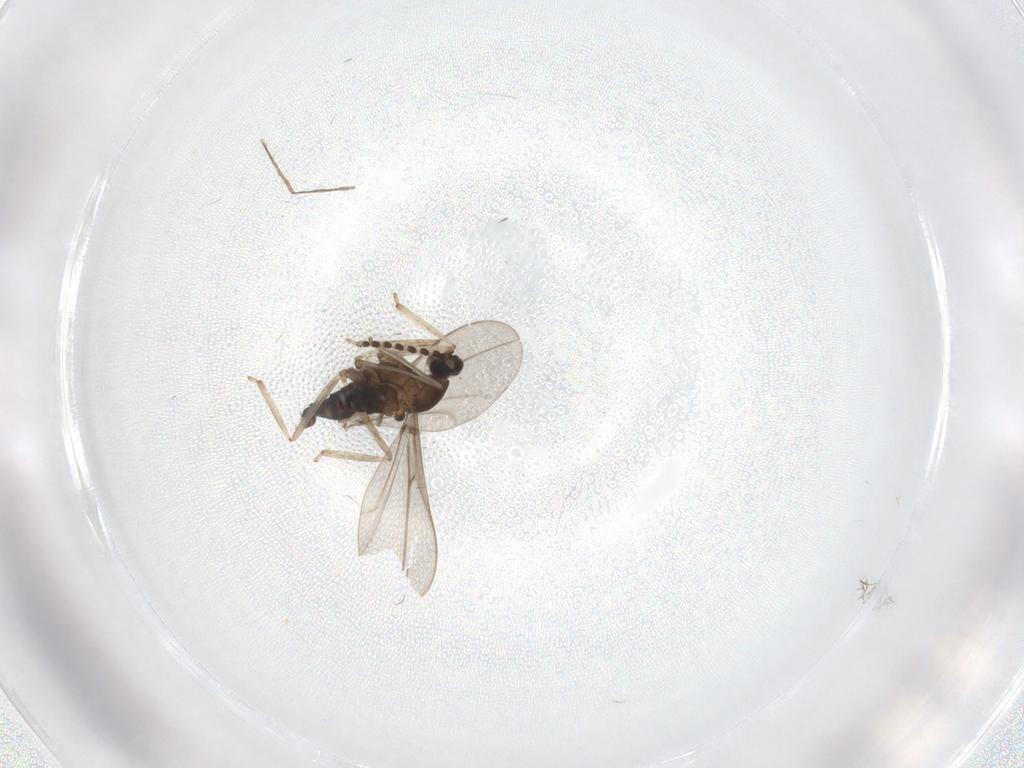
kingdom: Animalia
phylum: Arthropoda
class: Insecta
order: Diptera
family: Cecidomyiidae
